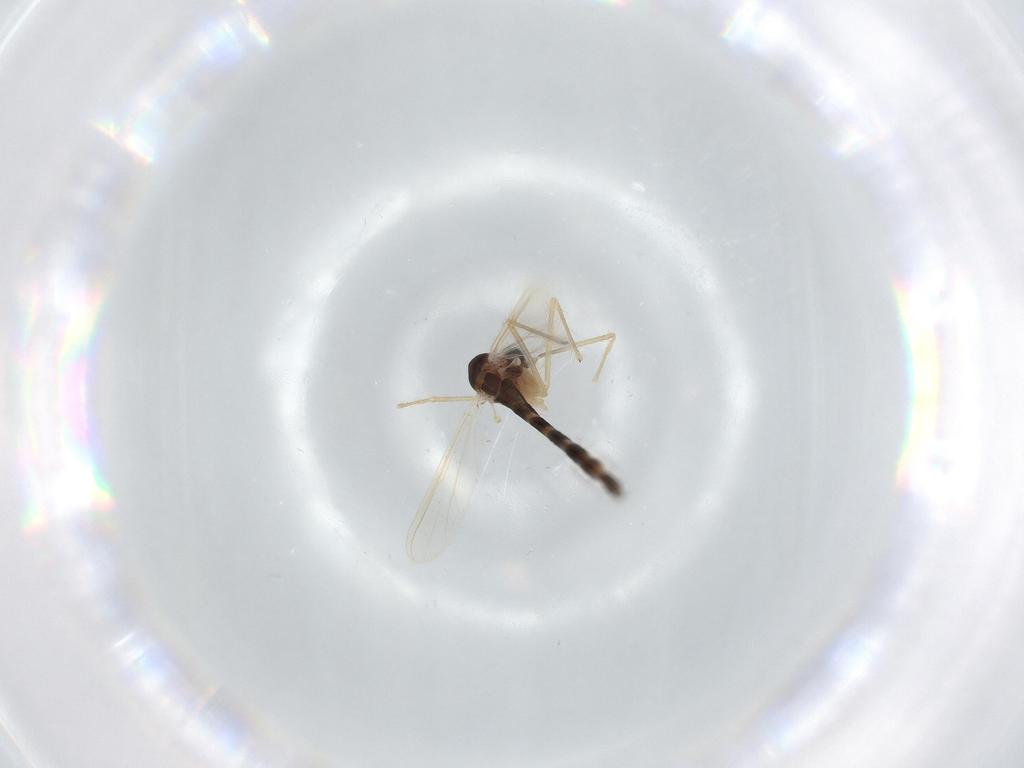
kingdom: Animalia
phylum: Arthropoda
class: Insecta
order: Diptera
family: Chironomidae
